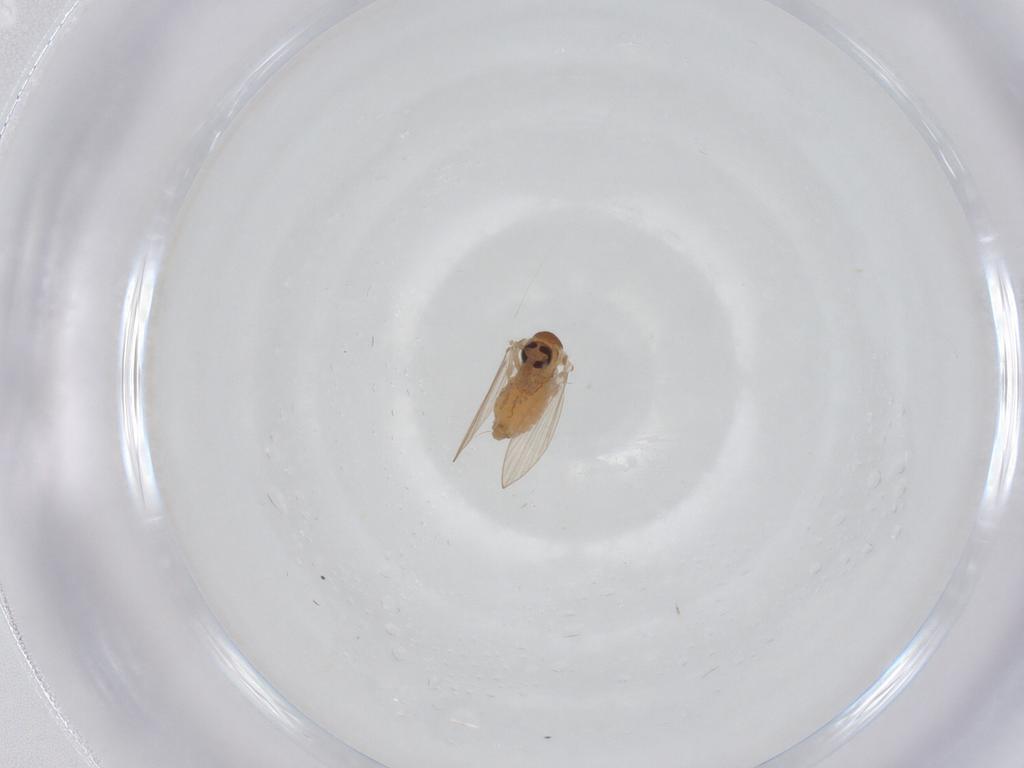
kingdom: Animalia
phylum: Arthropoda
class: Insecta
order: Diptera
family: Psychodidae
